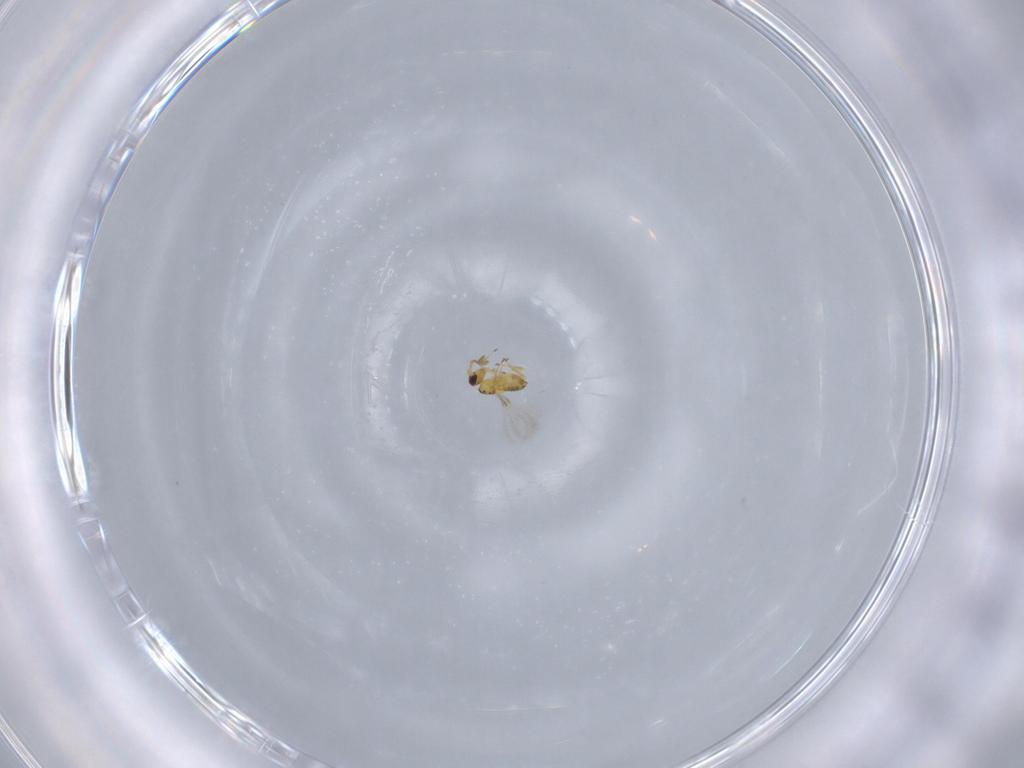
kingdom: Animalia
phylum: Arthropoda
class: Insecta
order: Hymenoptera
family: Mymaridae
